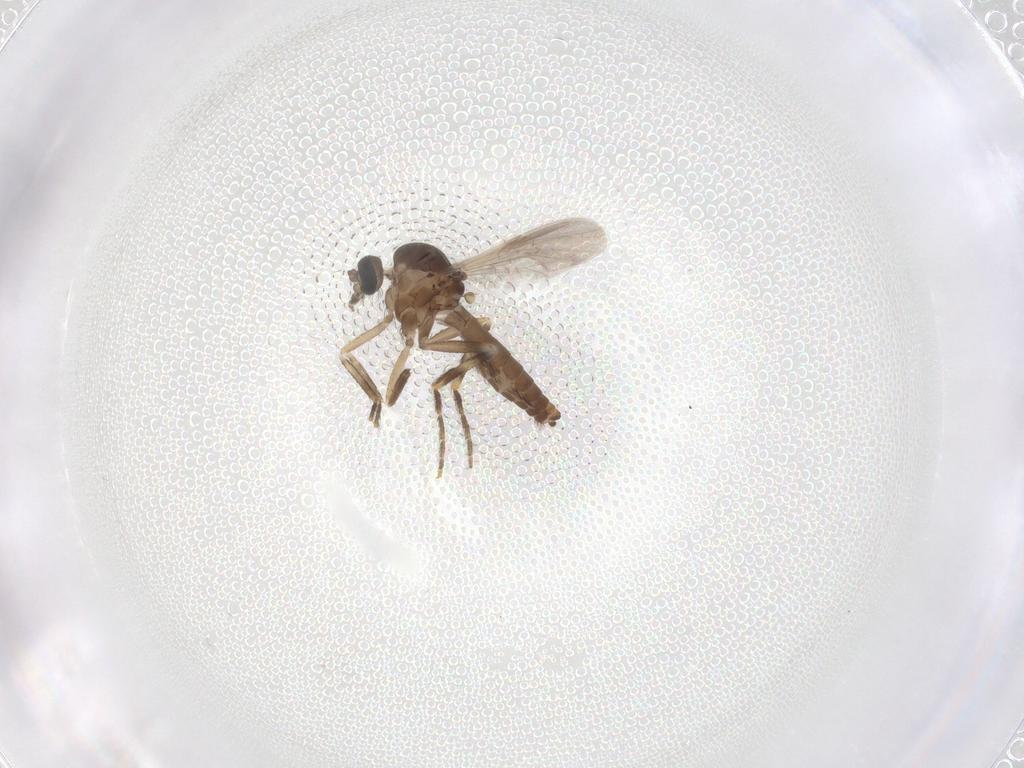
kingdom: Animalia
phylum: Arthropoda
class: Insecta
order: Diptera
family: Ceratopogonidae
